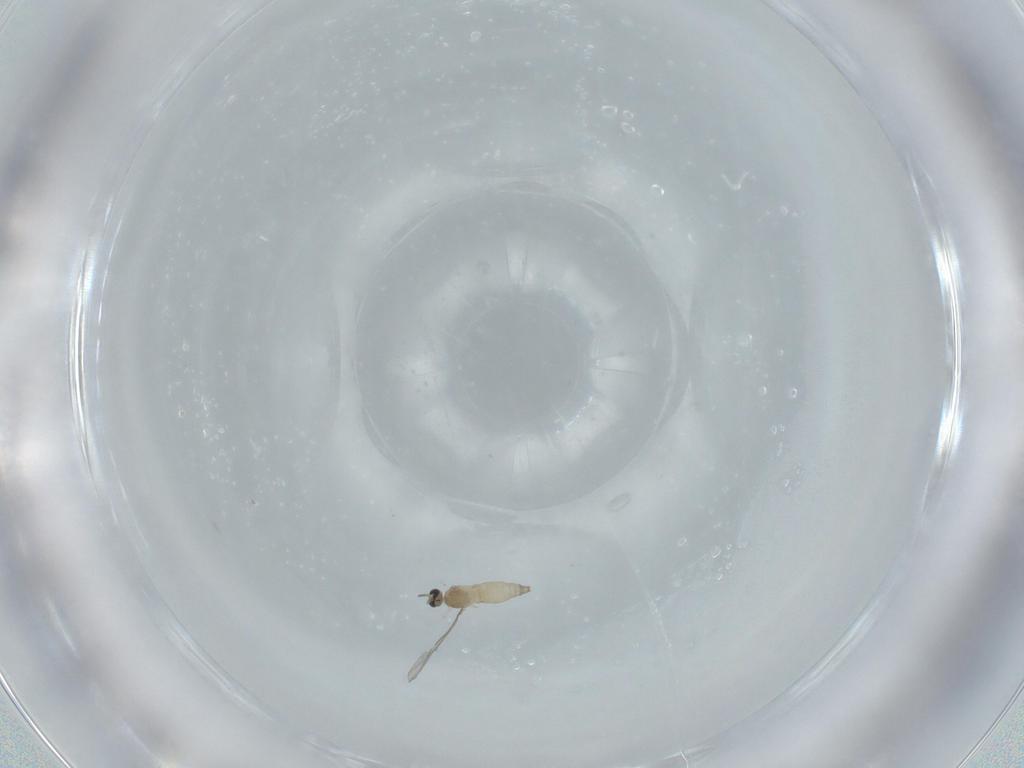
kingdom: Animalia
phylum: Arthropoda
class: Insecta
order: Diptera
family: Cecidomyiidae
